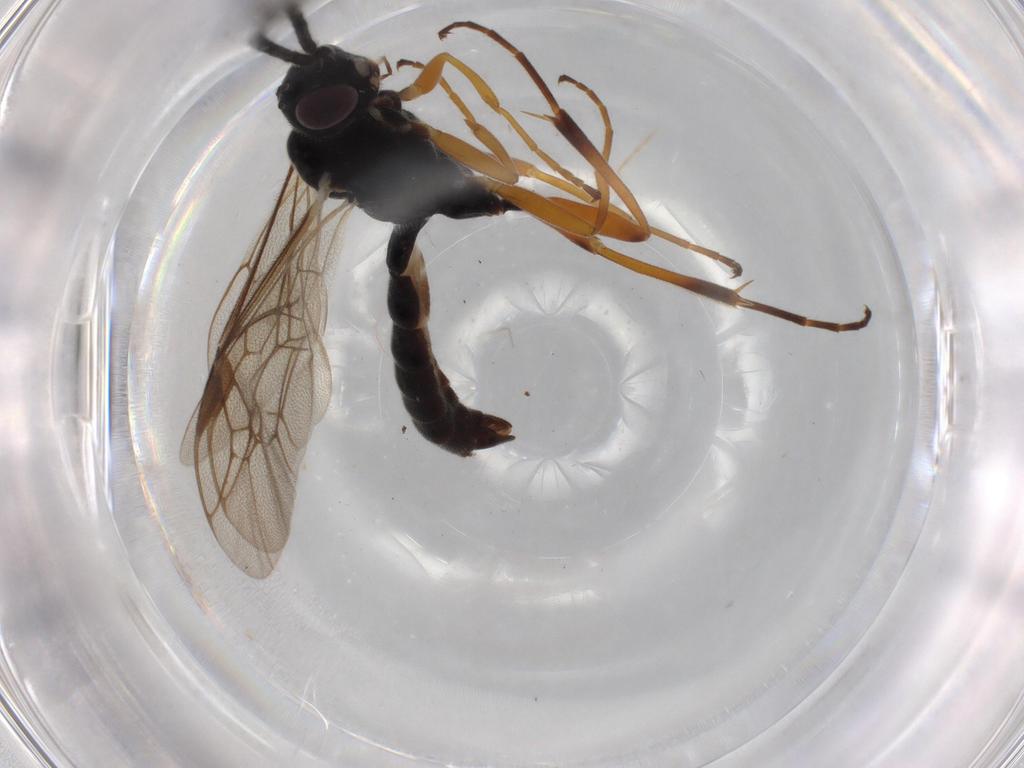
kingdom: Animalia
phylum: Arthropoda
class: Insecta
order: Hymenoptera
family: Ichneumonidae
